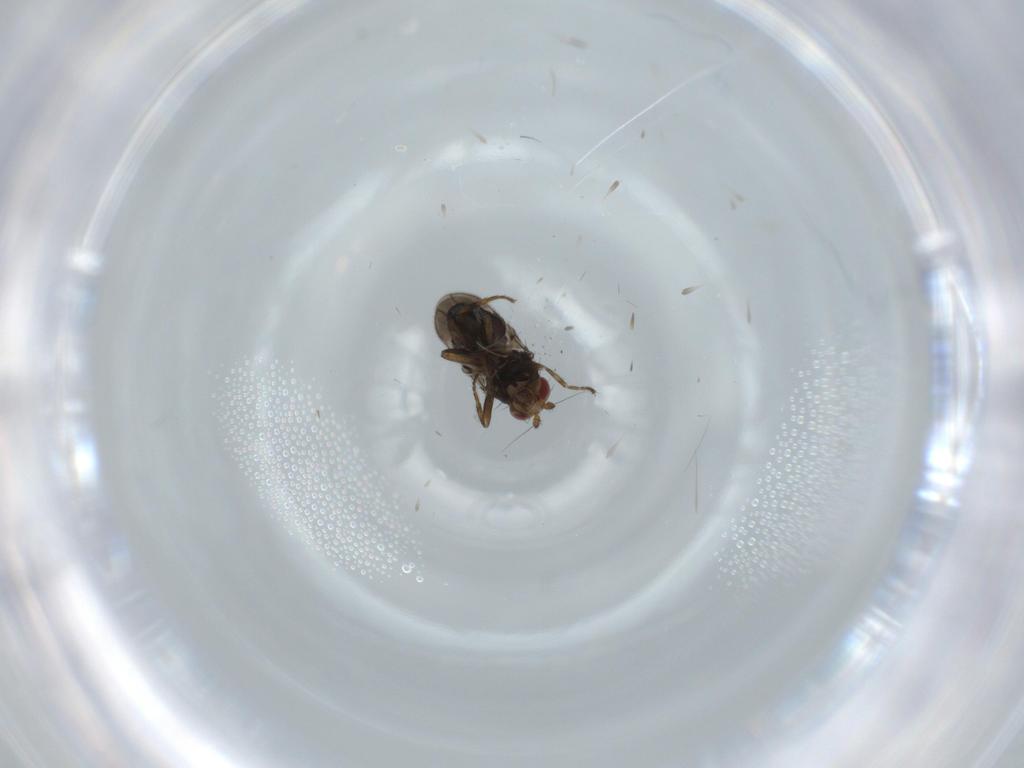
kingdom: Animalia
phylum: Arthropoda
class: Insecta
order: Diptera
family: Sphaeroceridae
